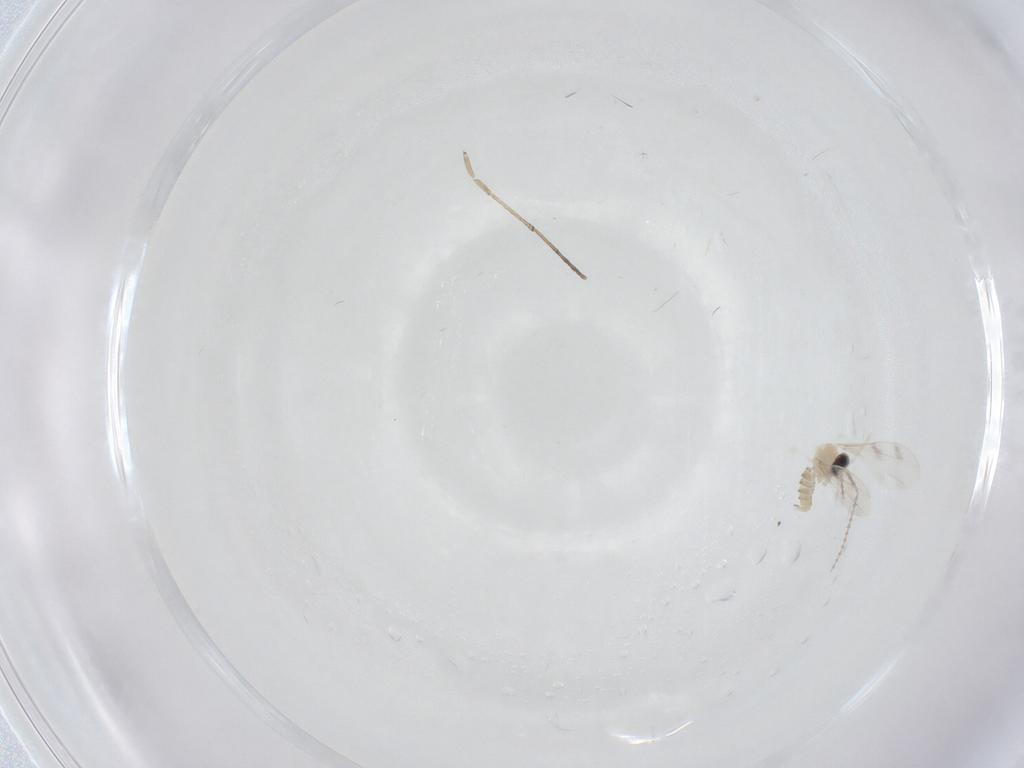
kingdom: Animalia
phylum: Arthropoda
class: Insecta
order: Diptera
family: Cecidomyiidae
